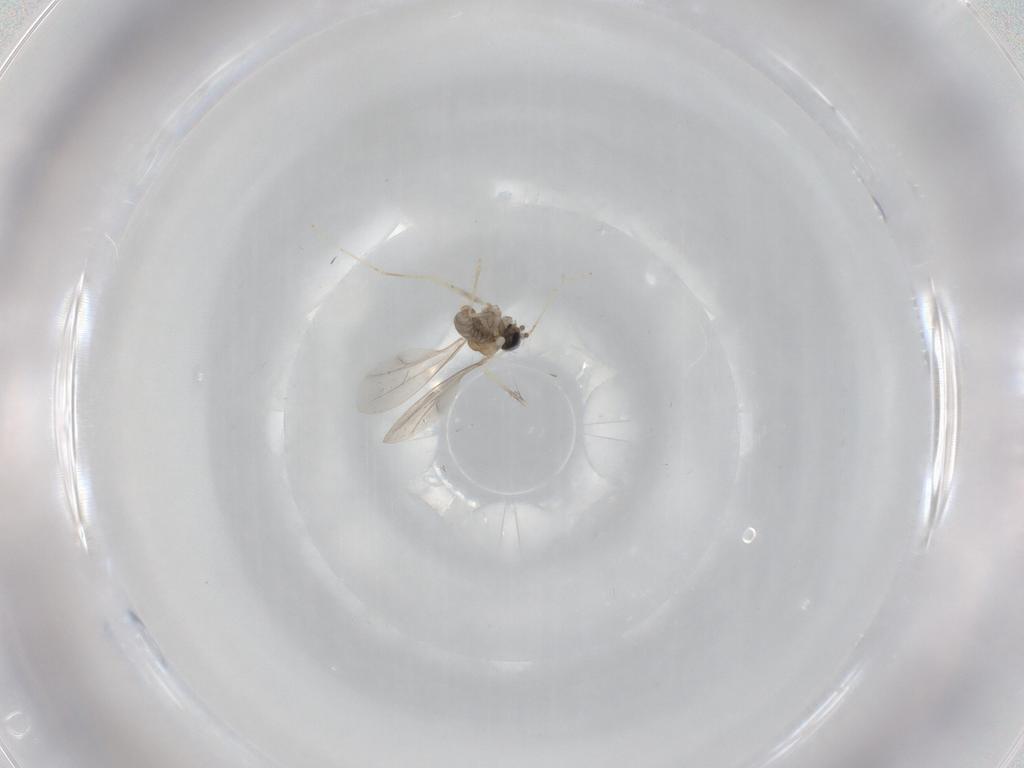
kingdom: Animalia
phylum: Arthropoda
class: Insecta
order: Diptera
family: Cecidomyiidae
